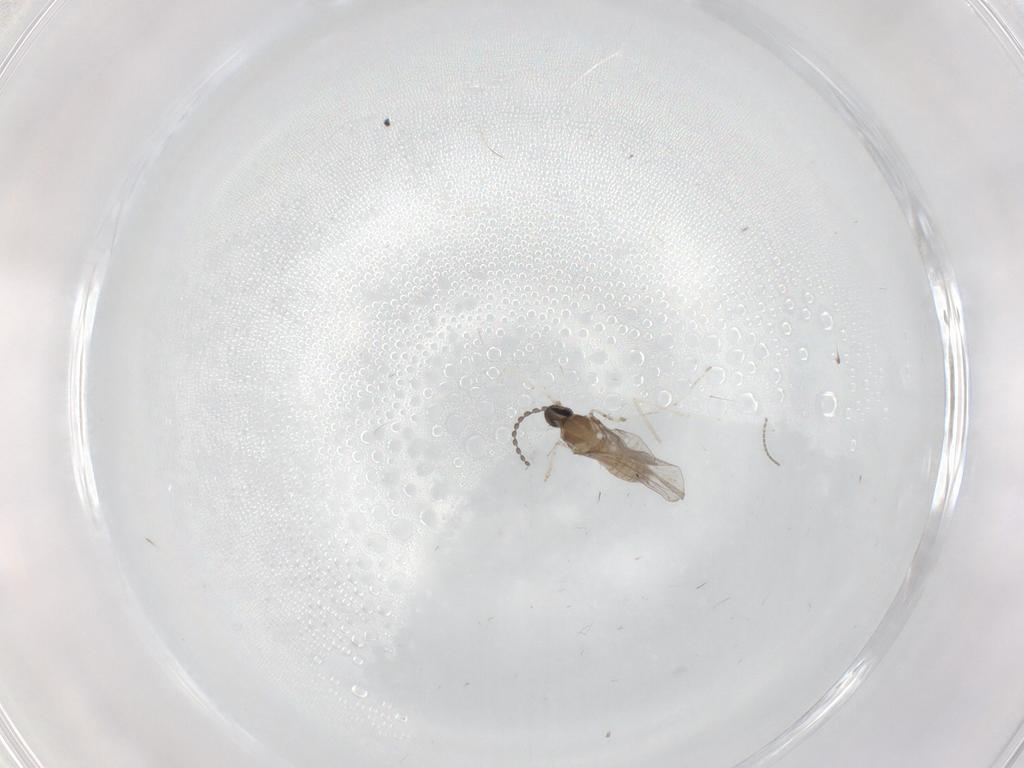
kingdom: Animalia
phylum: Arthropoda
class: Insecta
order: Diptera
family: Cecidomyiidae
